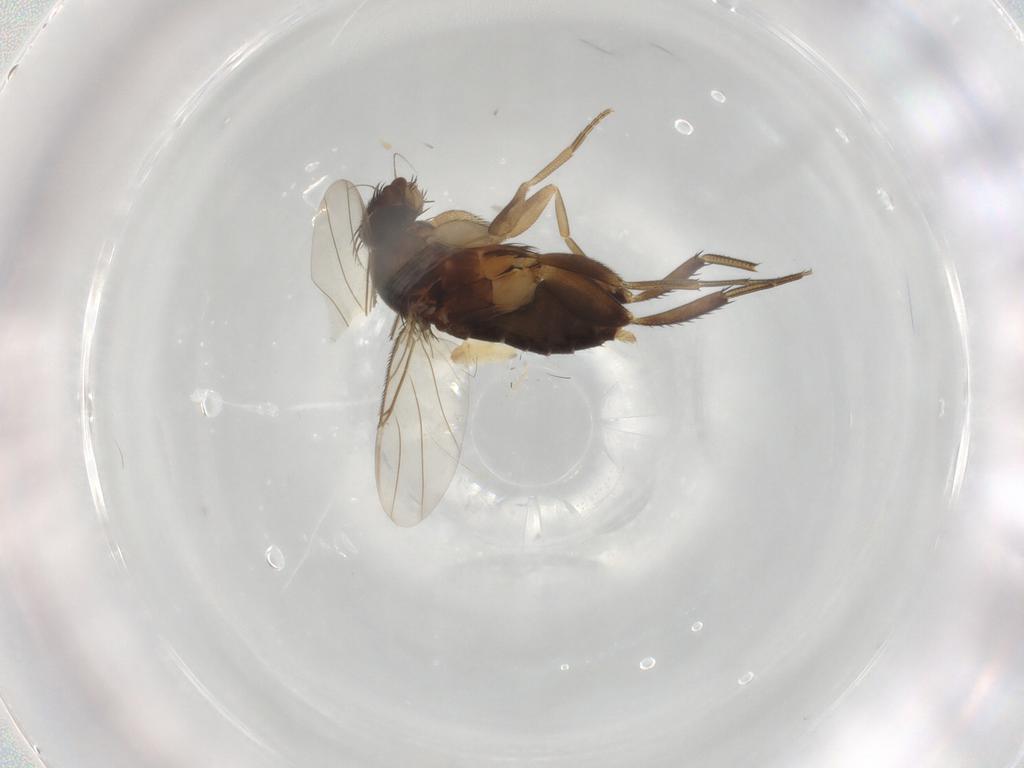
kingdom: Animalia
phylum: Arthropoda
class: Insecta
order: Diptera
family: Phoridae
